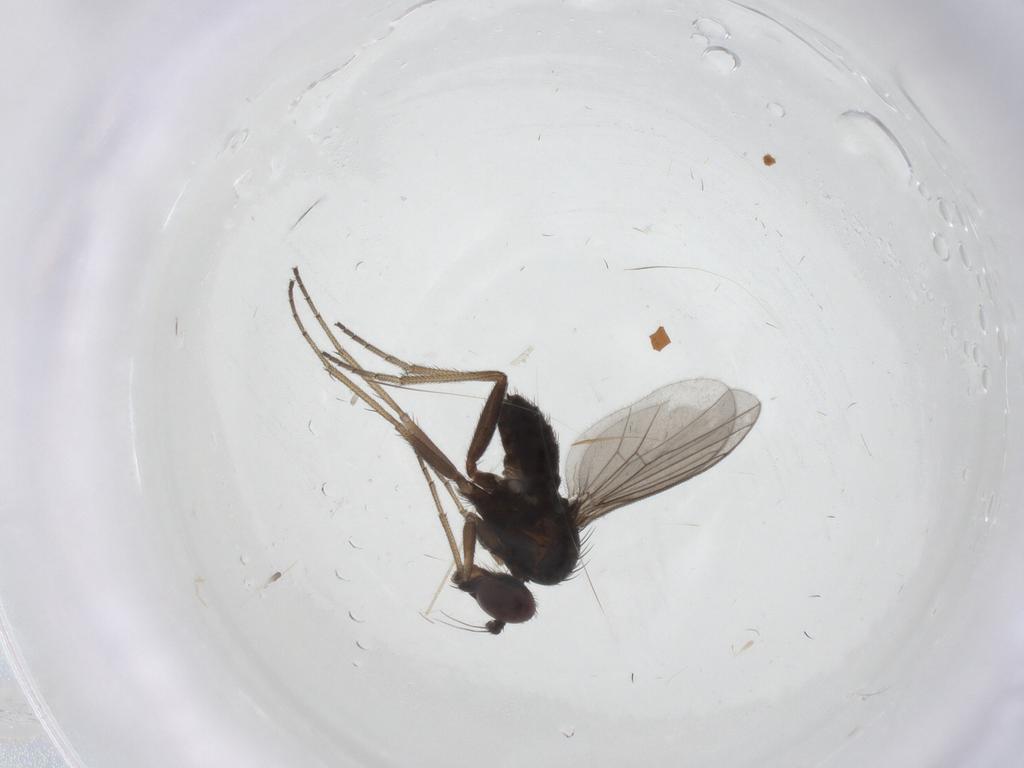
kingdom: Animalia
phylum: Arthropoda
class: Insecta
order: Diptera
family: Dolichopodidae
